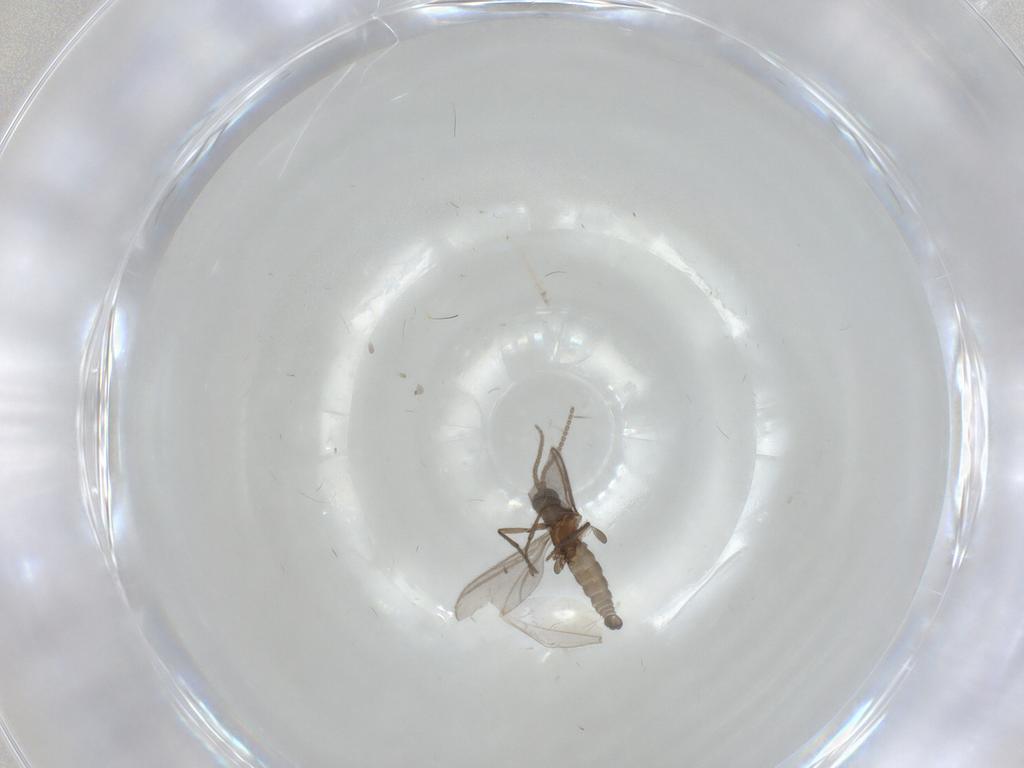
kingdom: Animalia
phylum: Arthropoda
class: Insecta
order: Diptera
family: Sciaridae
